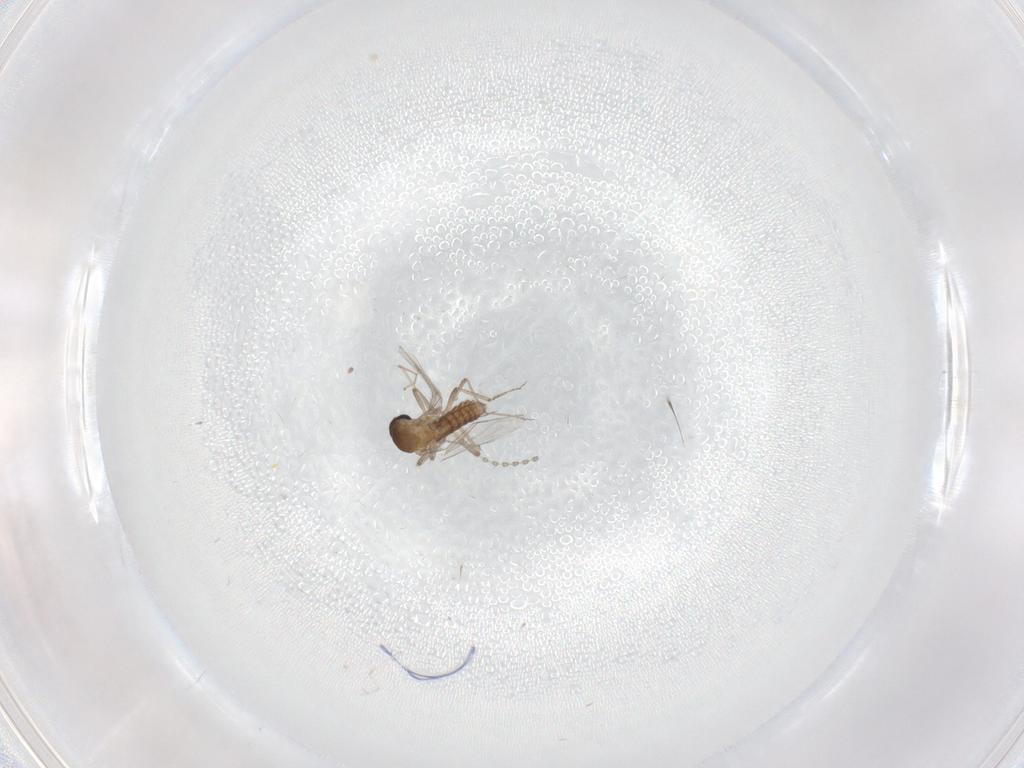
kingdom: Animalia
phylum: Arthropoda
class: Insecta
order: Diptera
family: Ceratopogonidae
